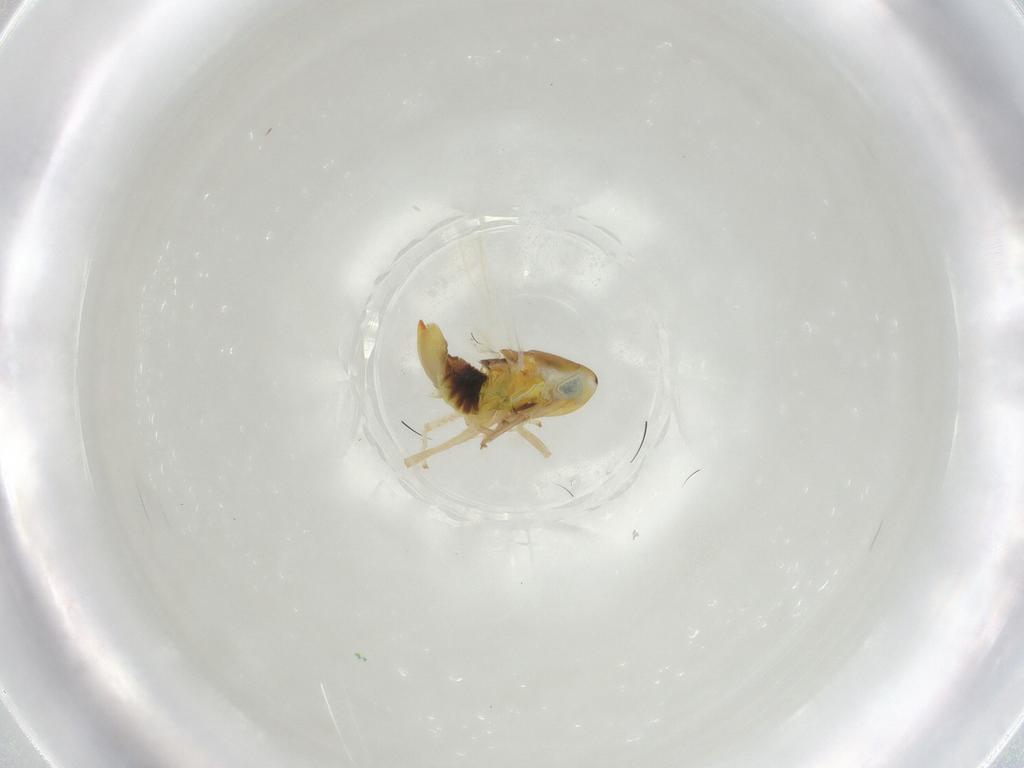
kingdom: Animalia
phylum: Arthropoda
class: Insecta
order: Hemiptera
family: Cicadellidae
